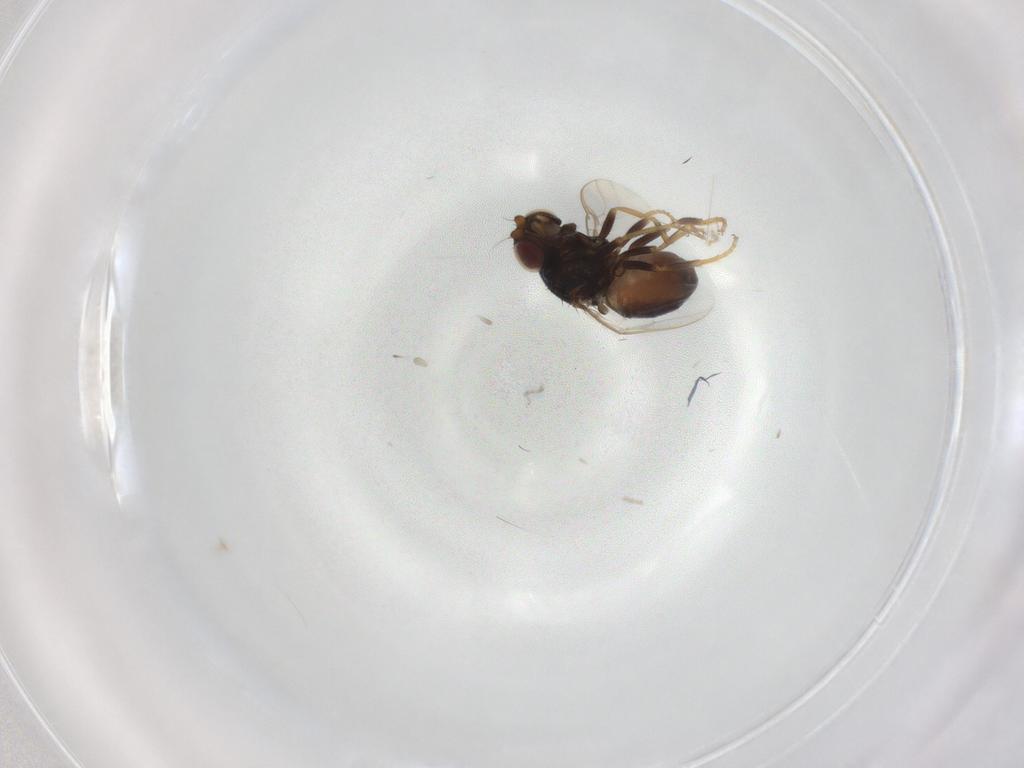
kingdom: Animalia
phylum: Arthropoda
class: Insecta
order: Diptera
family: Chloropidae
